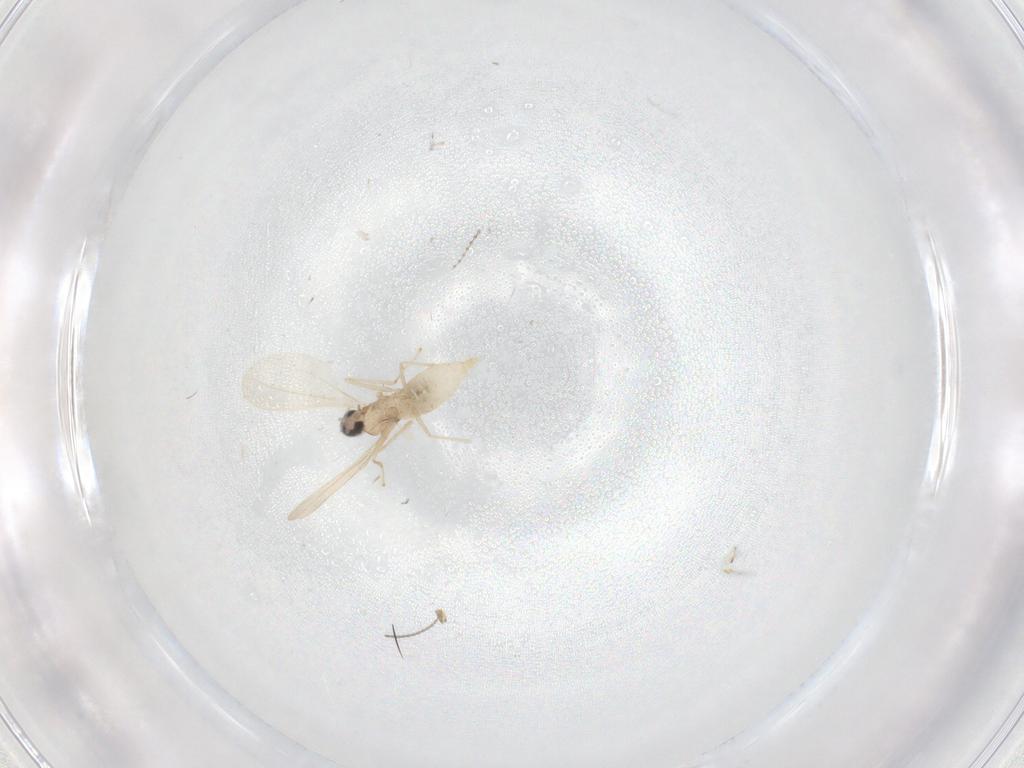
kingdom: Animalia
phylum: Arthropoda
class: Insecta
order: Diptera
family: Cecidomyiidae
